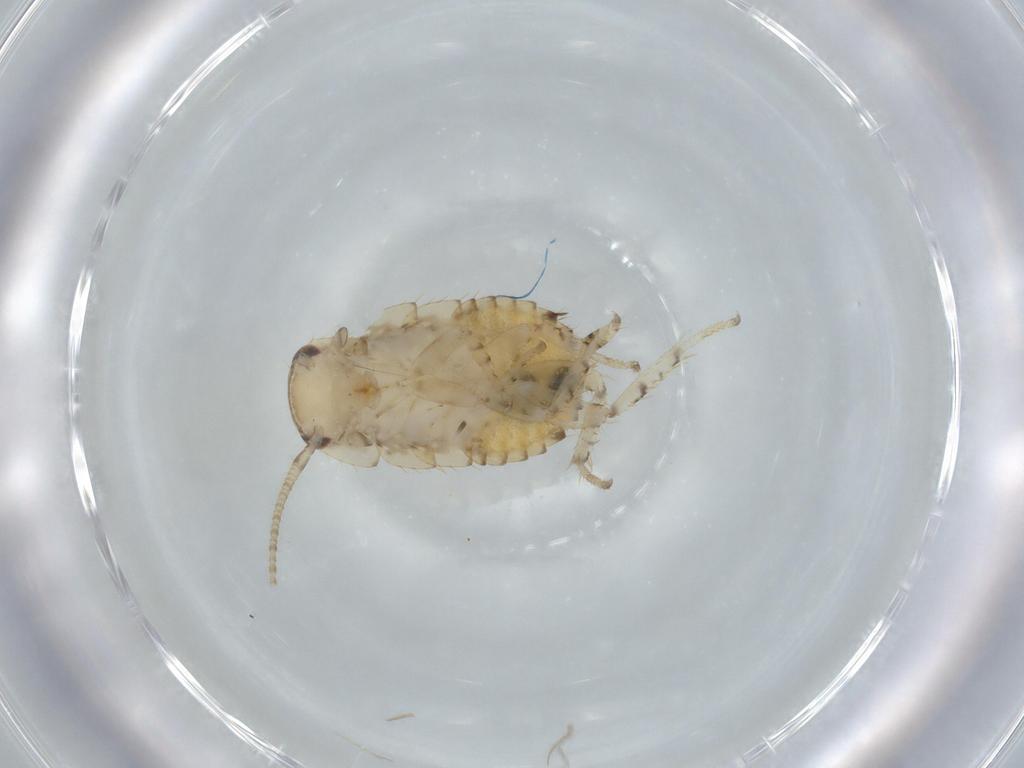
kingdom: Animalia
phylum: Arthropoda
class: Insecta
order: Blattodea
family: Ectobiidae
